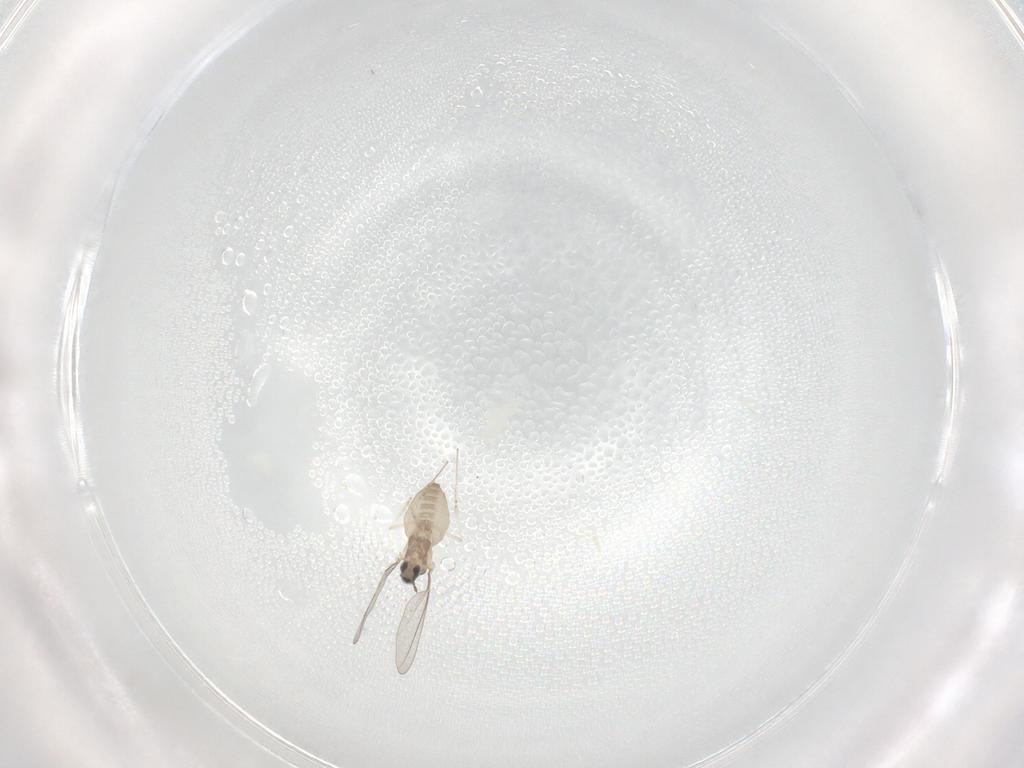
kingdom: Animalia
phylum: Arthropoda
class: Insecta
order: Diptera
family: Cecidomyiidae
